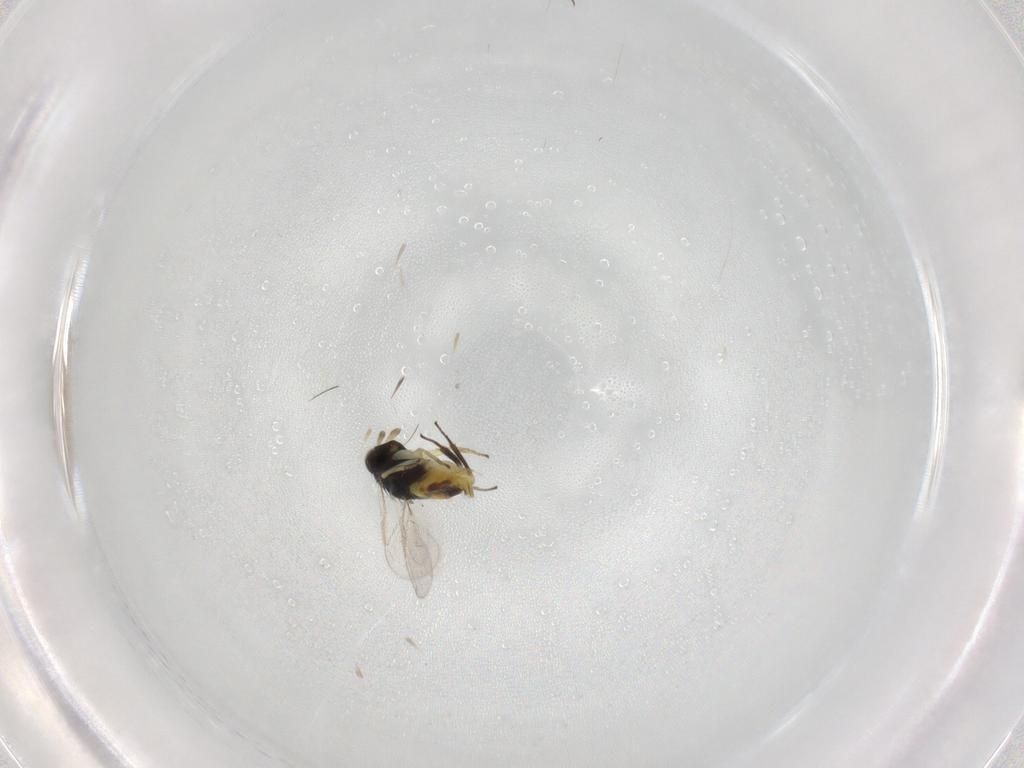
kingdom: Animalia
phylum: Arthropoda
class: Insecta
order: Hymenoptera
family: Aphelinidae
